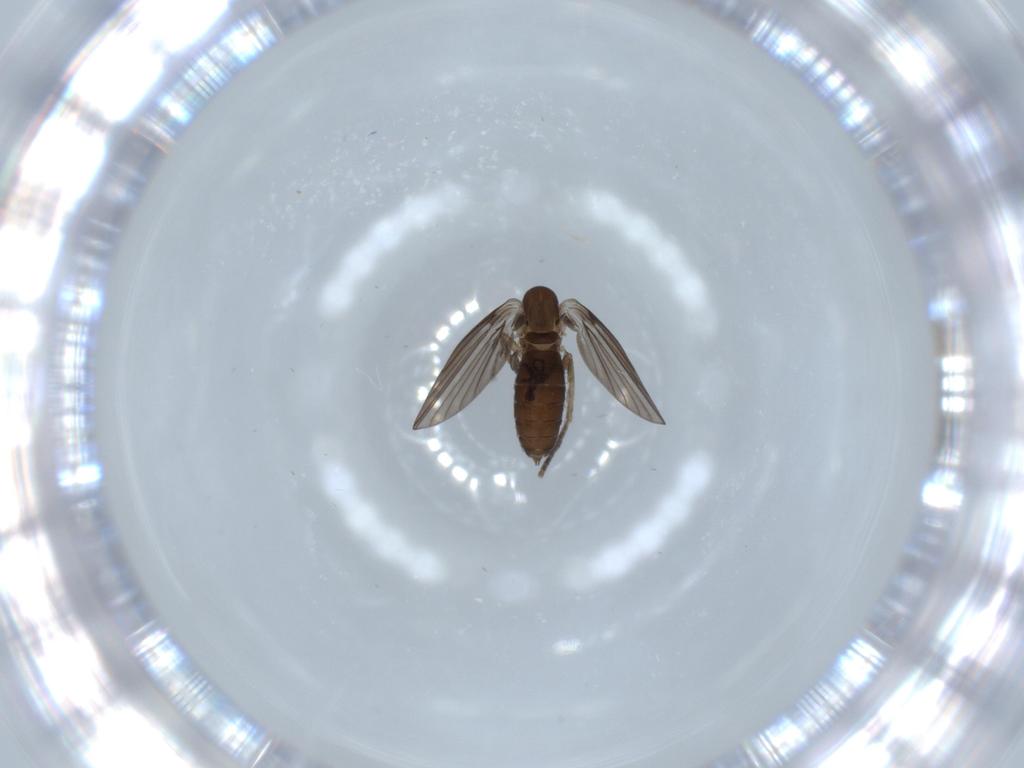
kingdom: Animalia
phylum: Arthropoda
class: Insecta
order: Diptera
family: Psychodidae
